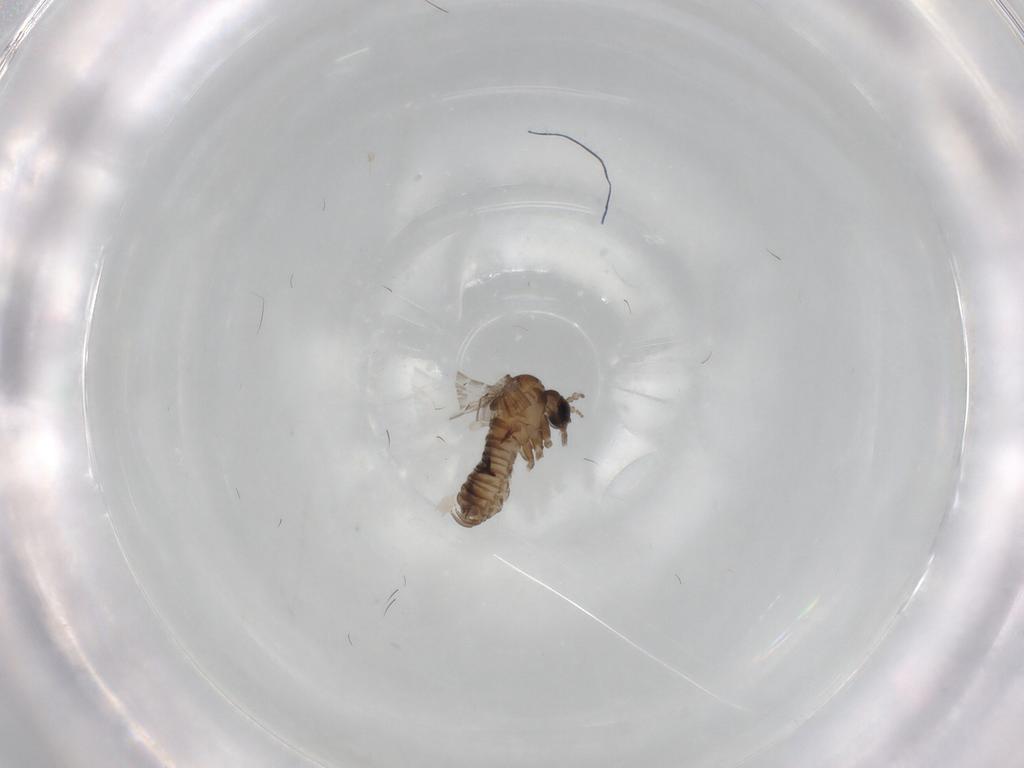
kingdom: Animalia
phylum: Arthropoda
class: Insecta
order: Diptera
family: Psychodidae
